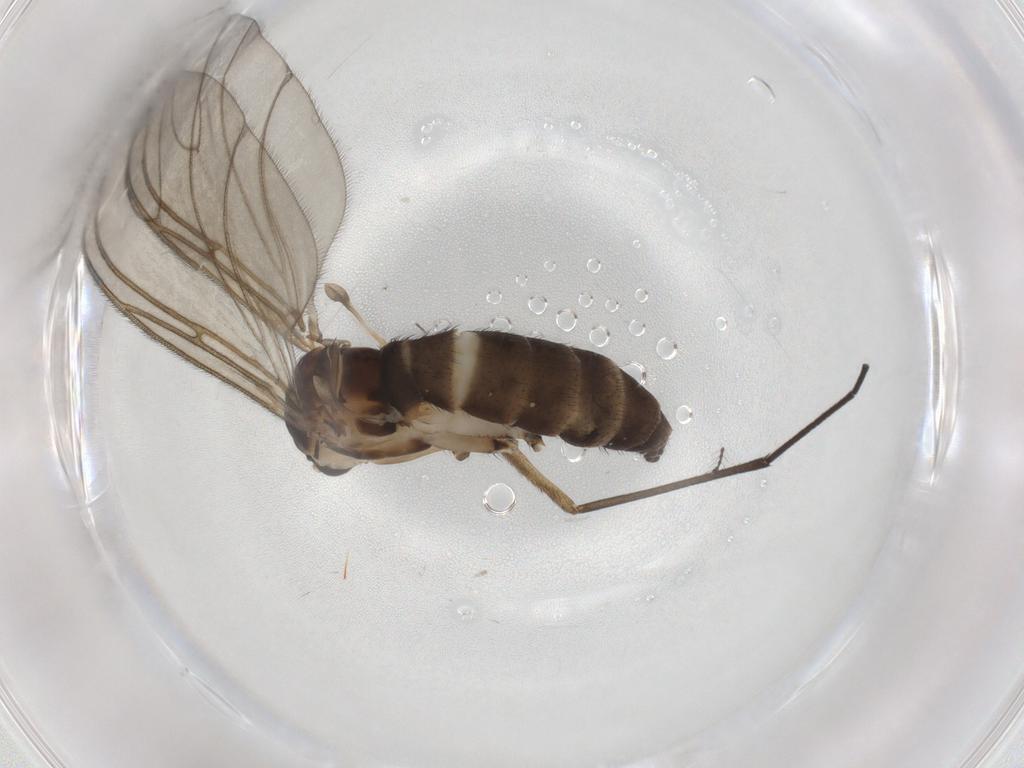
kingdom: Animalia
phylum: Arthropoda
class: Insecta
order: Diptera
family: Sciaridae
